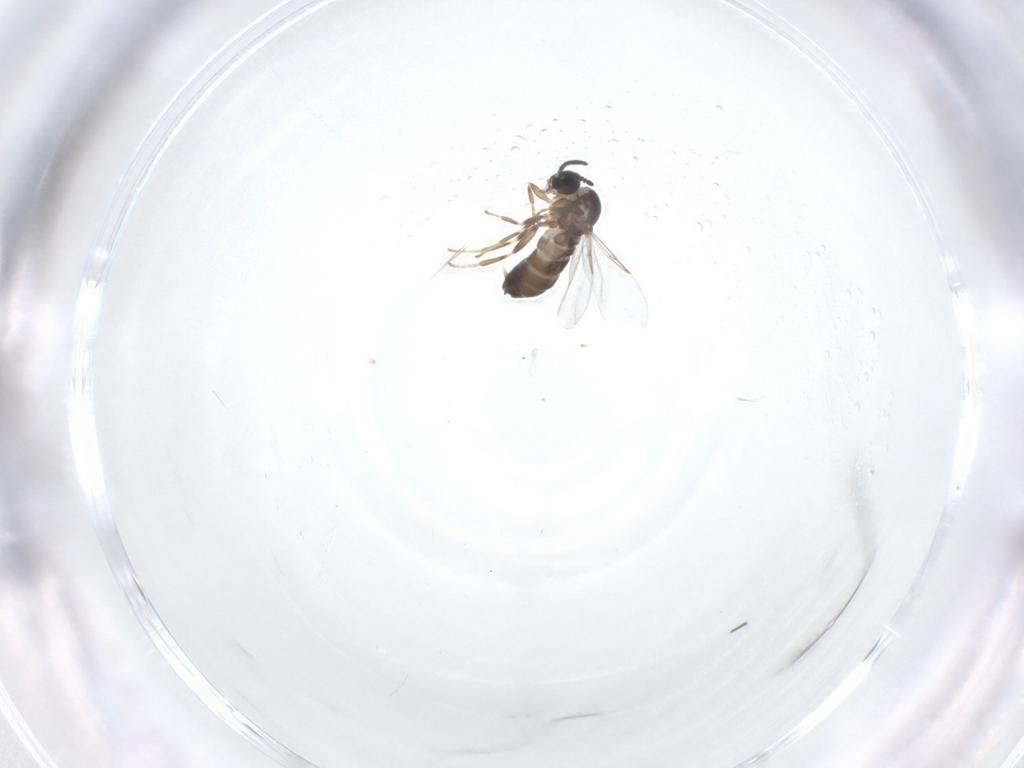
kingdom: Animalia
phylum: Arthropoda
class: Insecta
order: Diptera
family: Scatopsidae
